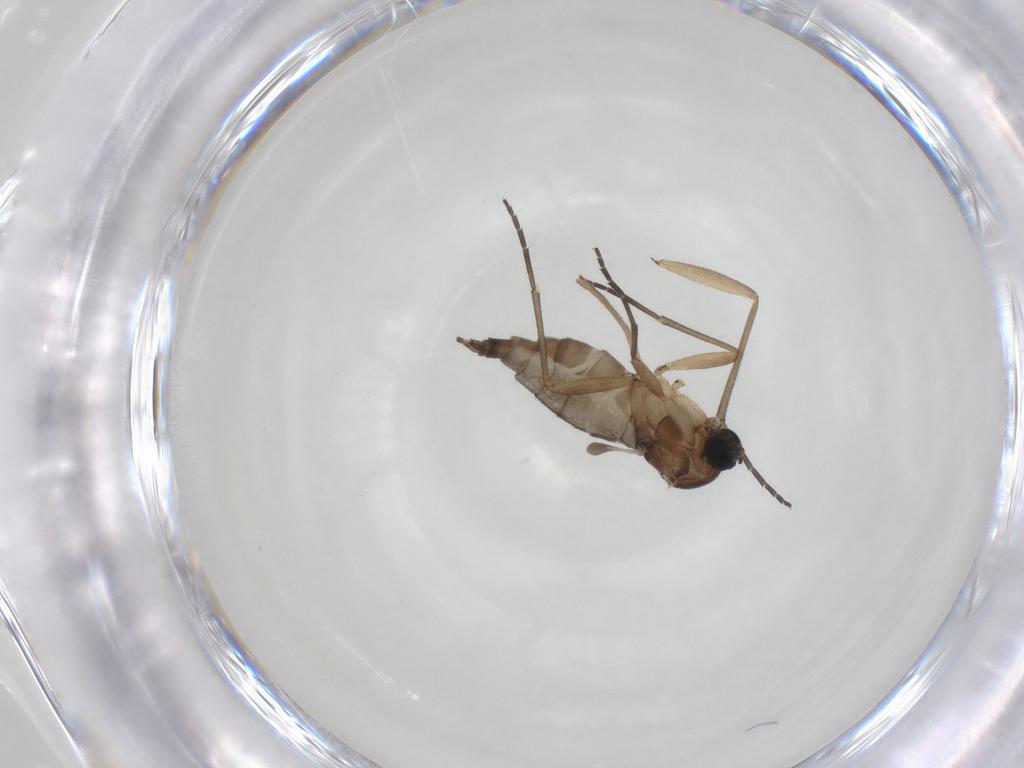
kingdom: Animalia
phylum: Arthropoda
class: Insecta
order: Diptera
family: Sciaridae
